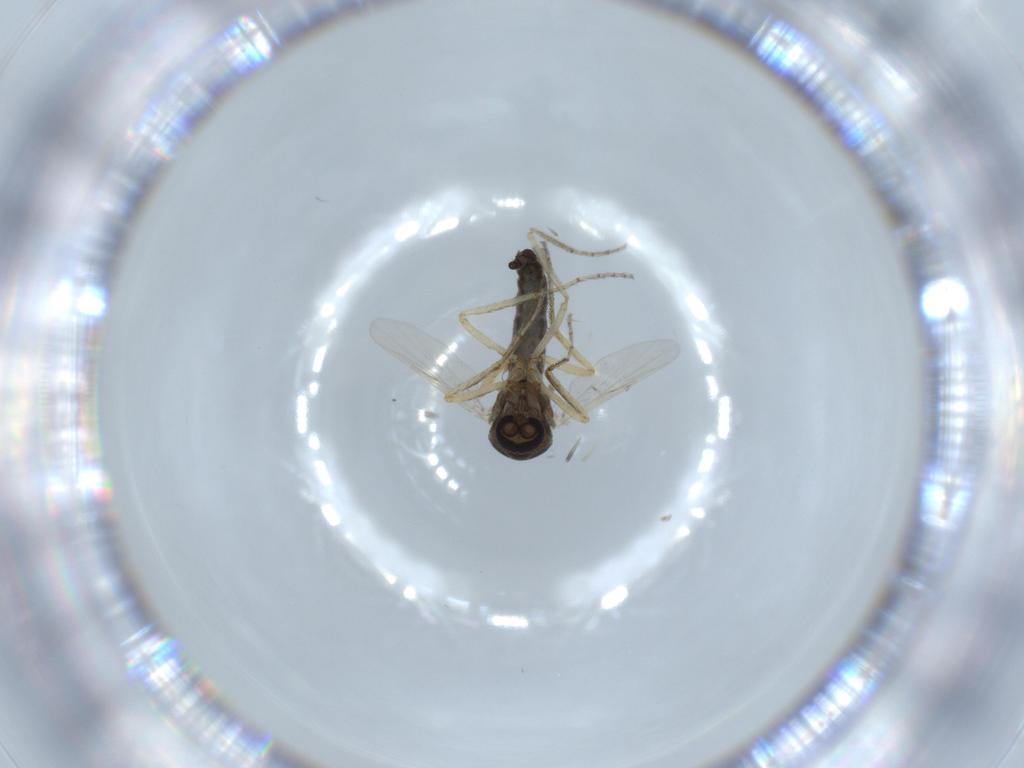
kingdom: Animalia
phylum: Arthropoda
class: Insecta
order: Diptera
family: Ceratopogonidae
